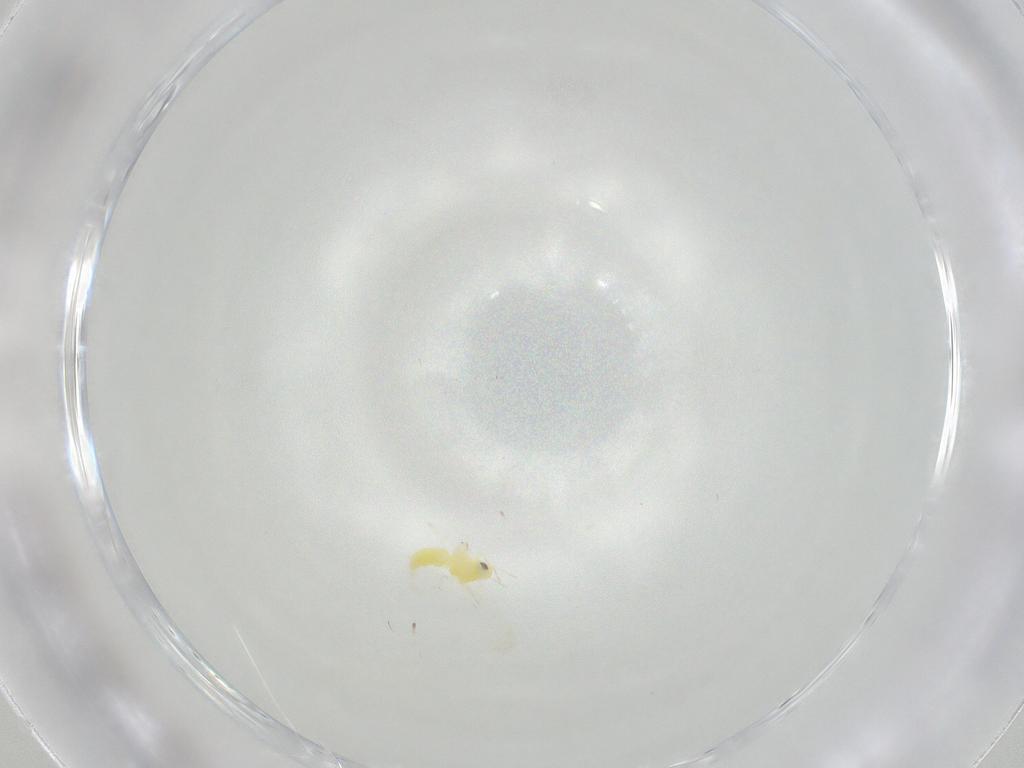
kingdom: Animalia
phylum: Arthropoda
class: Insecta
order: Hemiptera
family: Aleyrodidae
